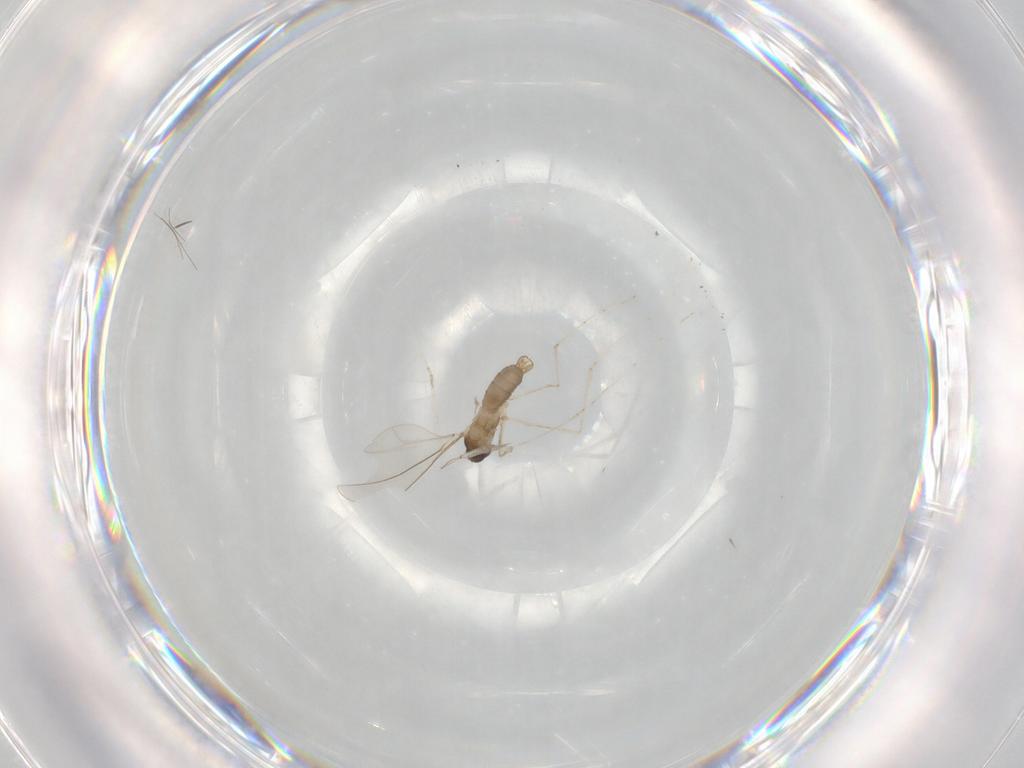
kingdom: Animalia
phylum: Arthropoda
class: Insecta
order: Diptera
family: Cecidomyiidae
